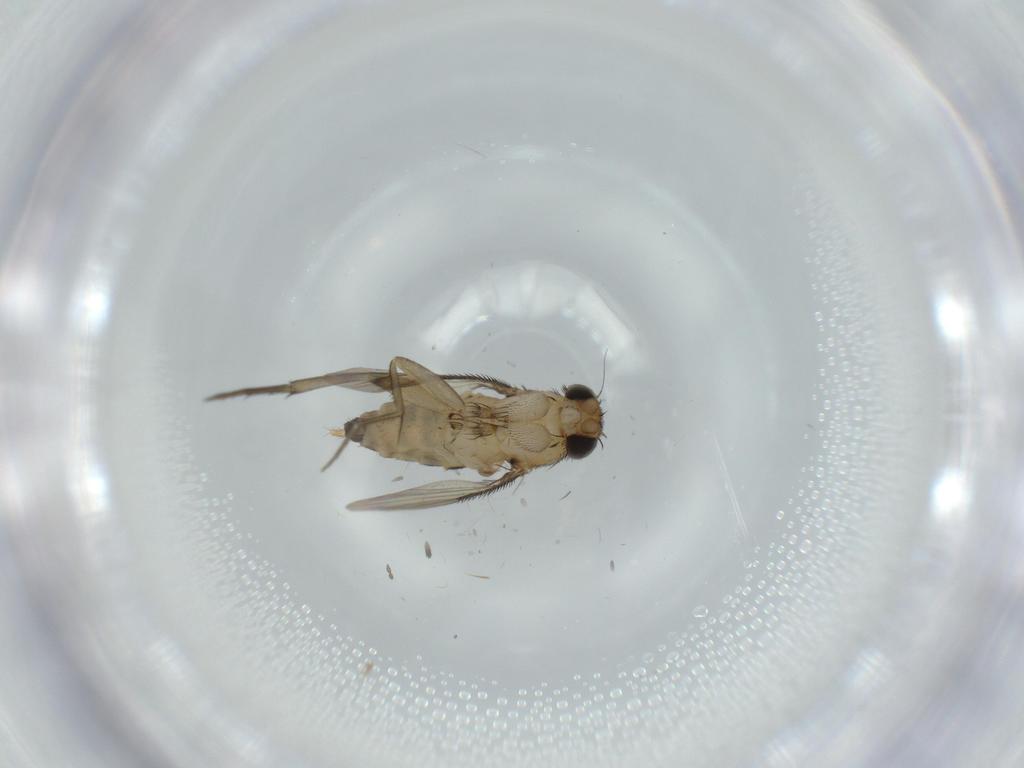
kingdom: Animalia
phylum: Arthropoda
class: Insecta
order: Diptera
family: Phoridae
